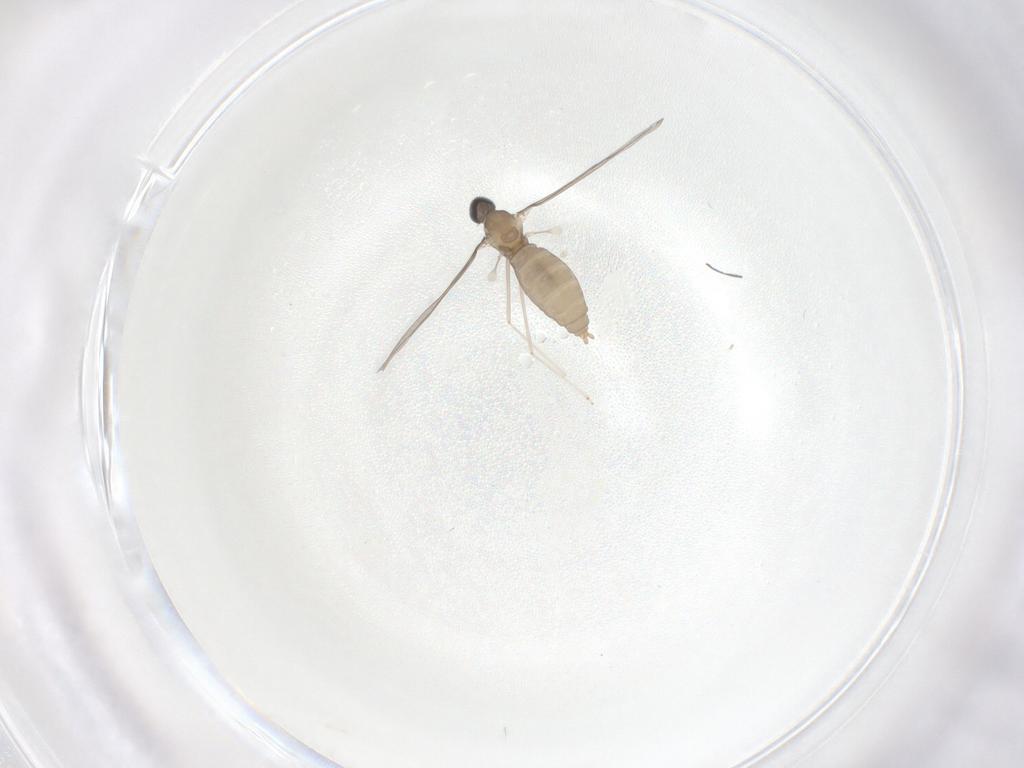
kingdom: Animalia
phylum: Arthropoda
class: Insecta
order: Diptera
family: Cecidomyiidae
